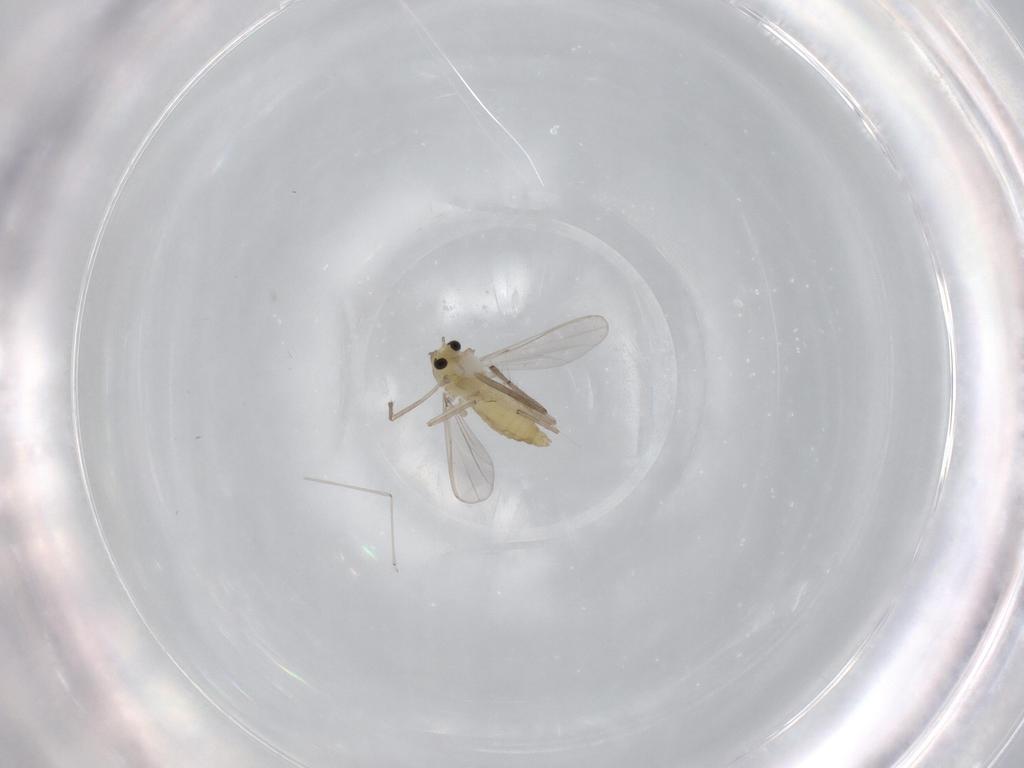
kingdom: Animalia
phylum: Arthropoda
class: Insecta
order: Diptera
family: Chironomidae
